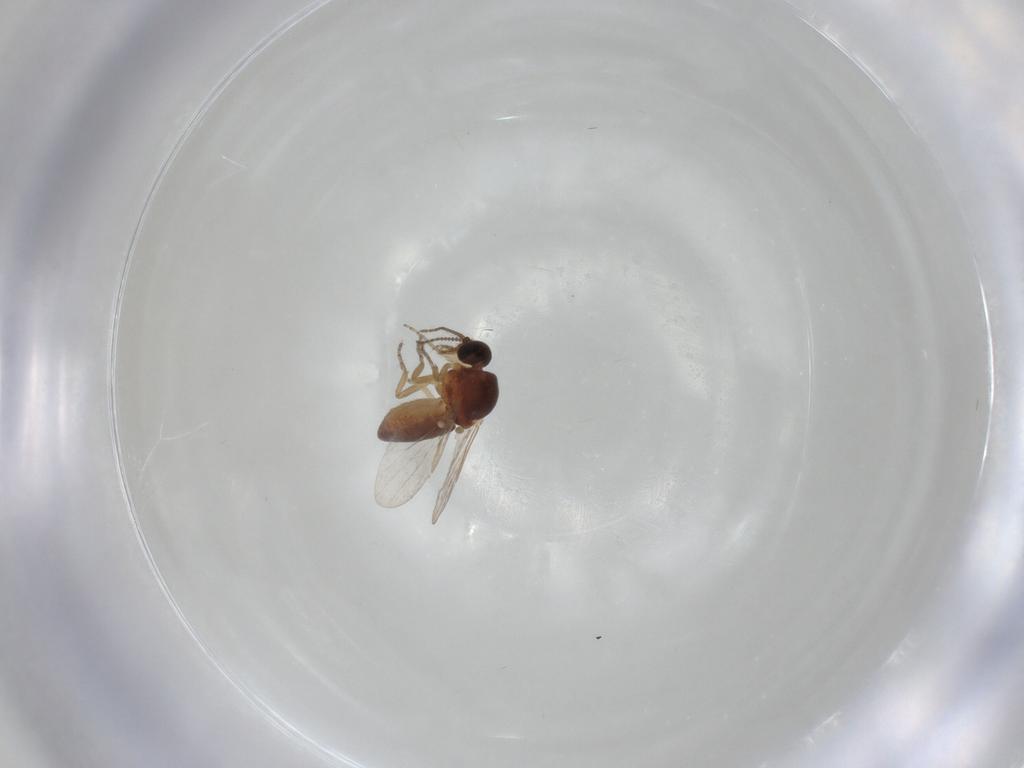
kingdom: Animalia
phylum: Arthropoda
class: Insecta
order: Diptera
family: Ceratopogonidae
